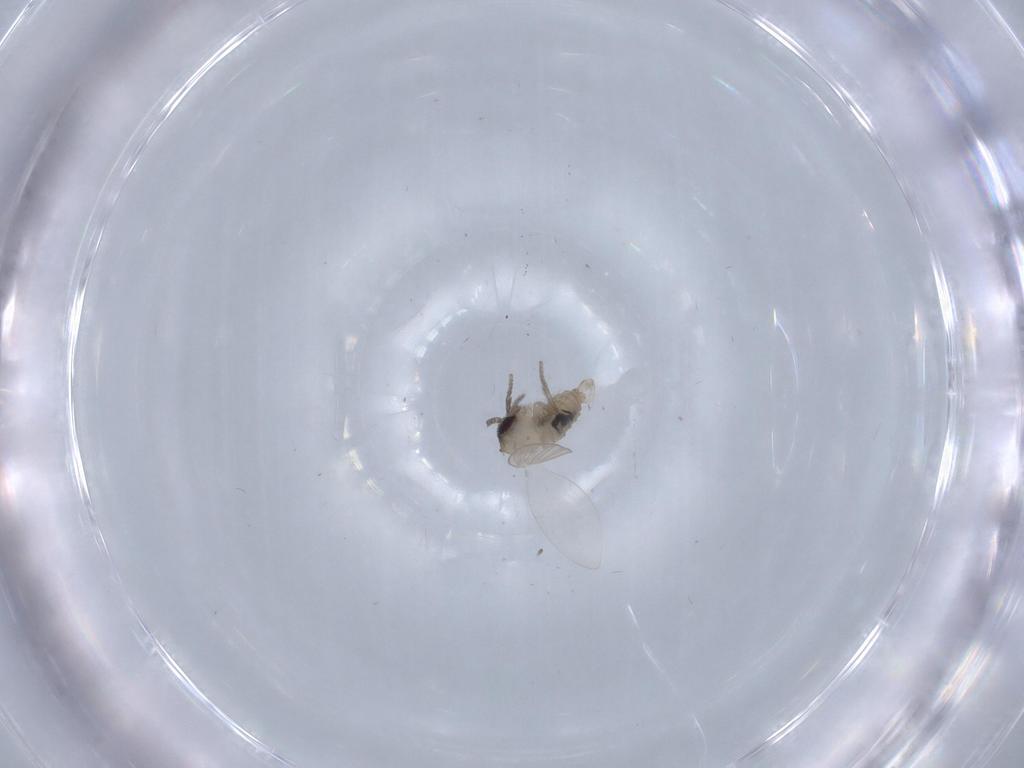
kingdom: Animalia
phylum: Arthropoda
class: Insecta
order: Diptera
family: Psychodidae
